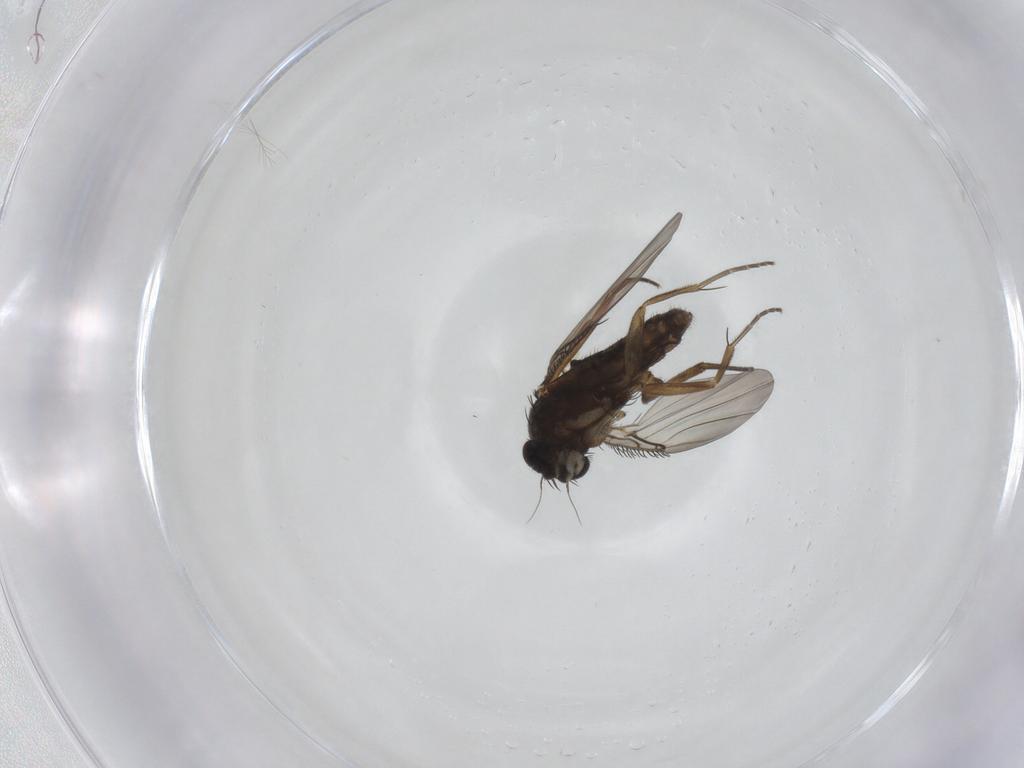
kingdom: Animalia
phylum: Arthropoda
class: Insecta
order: Diptera
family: Phoridae
